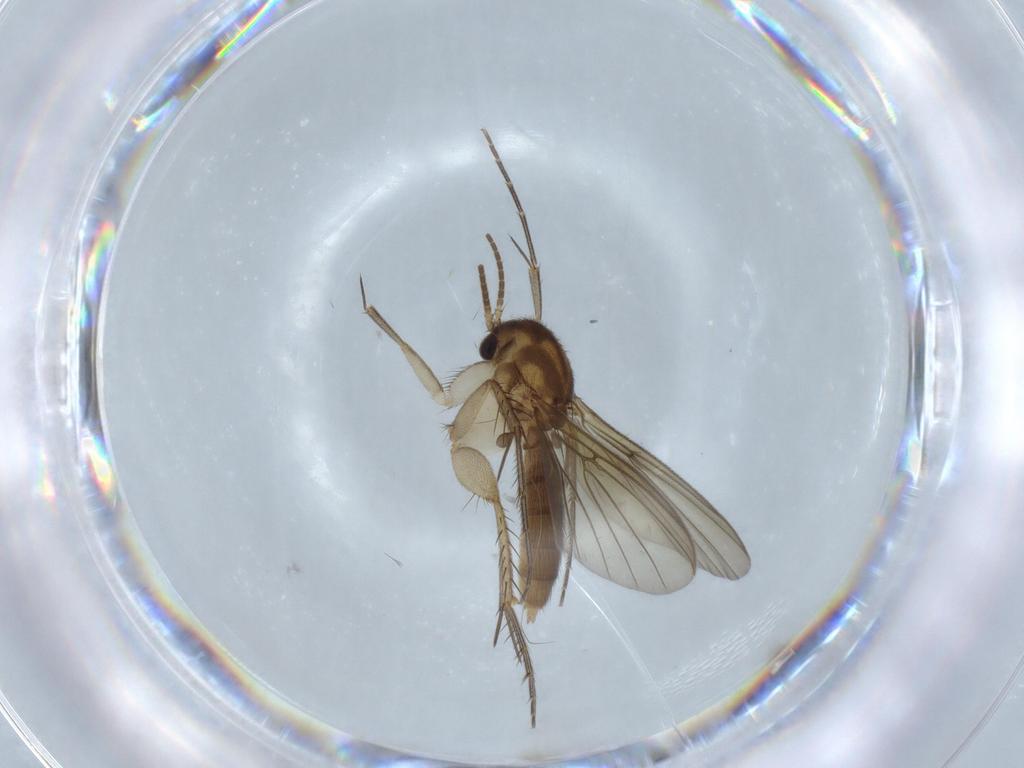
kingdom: Animalia
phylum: Arthropoda
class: Insecta
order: Diptera
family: Mycetophilidae
